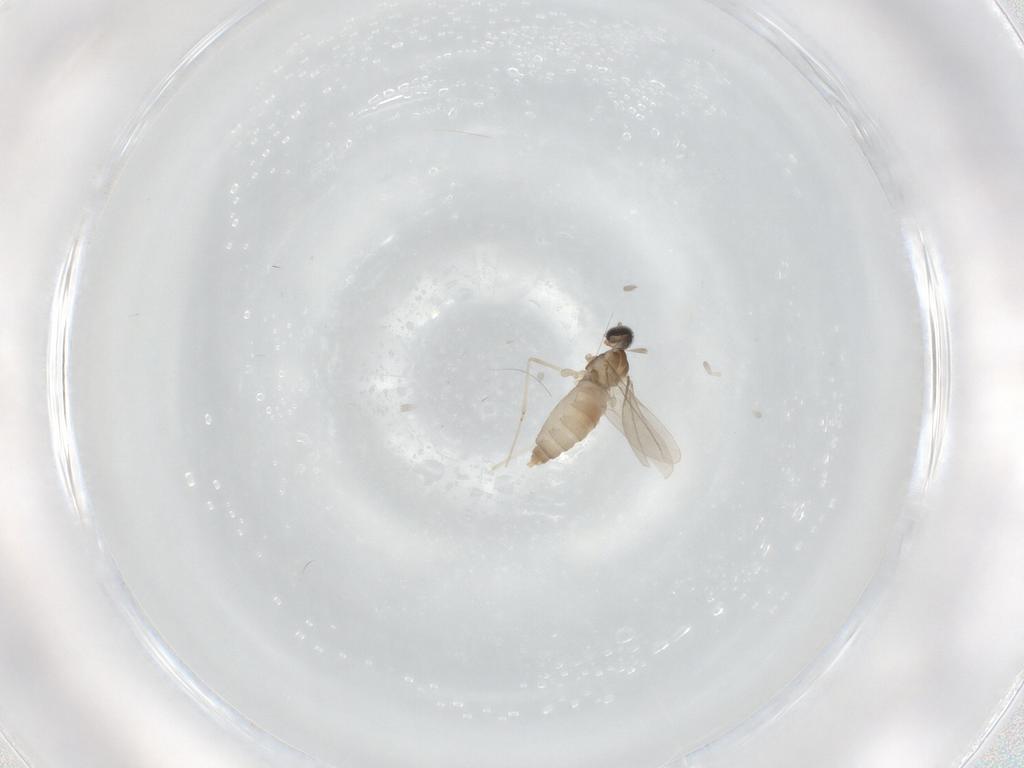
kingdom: Animalia
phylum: Arthropoda
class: Insecta
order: Diptera
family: Ceratopogonidae
